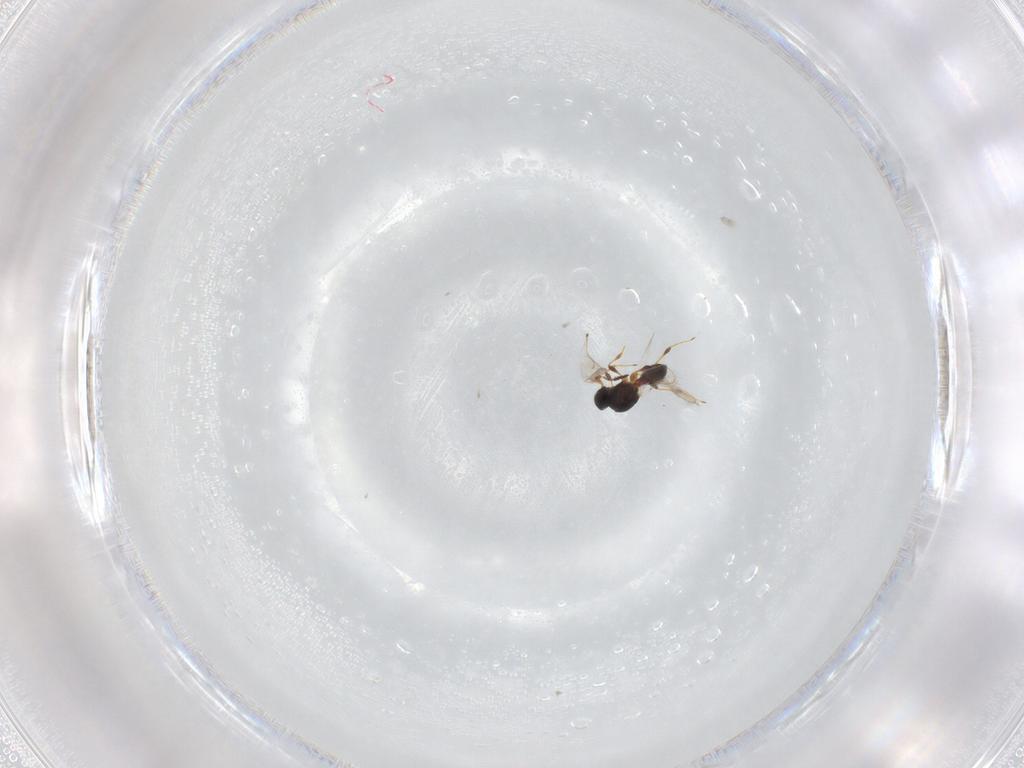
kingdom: Animalia
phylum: Arthropoda
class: Insecta
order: Hymenoptera
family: Platygastridae
